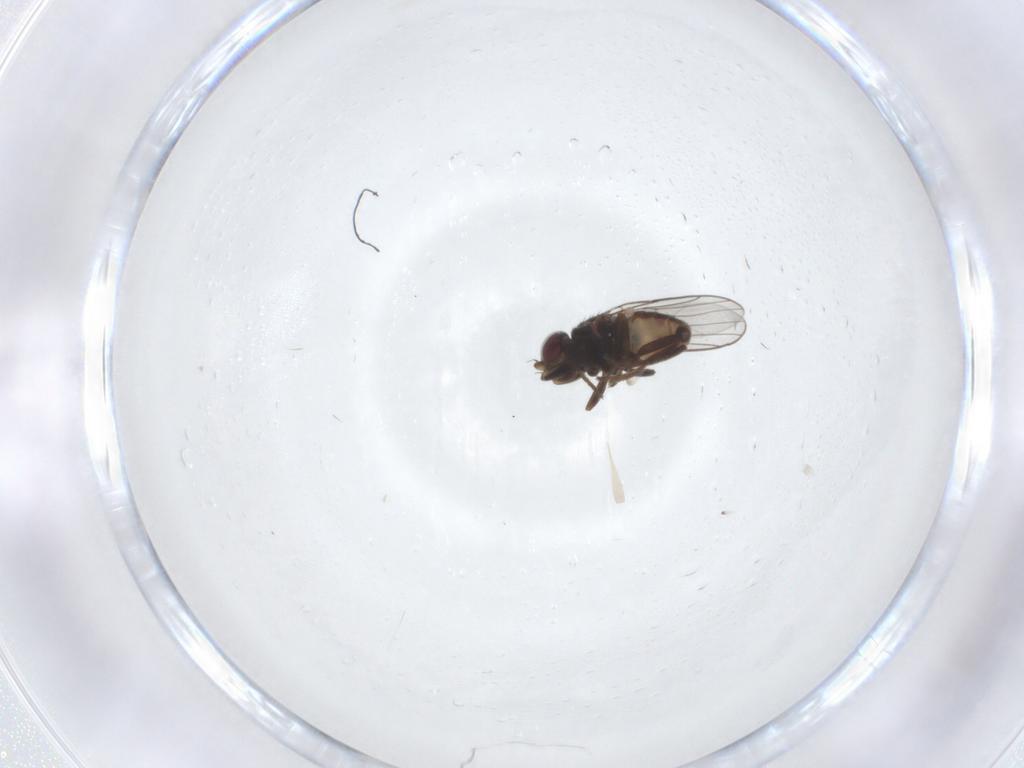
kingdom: Animalia
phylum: Arthropoda
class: Insecta
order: Diptera
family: Chloropidae
